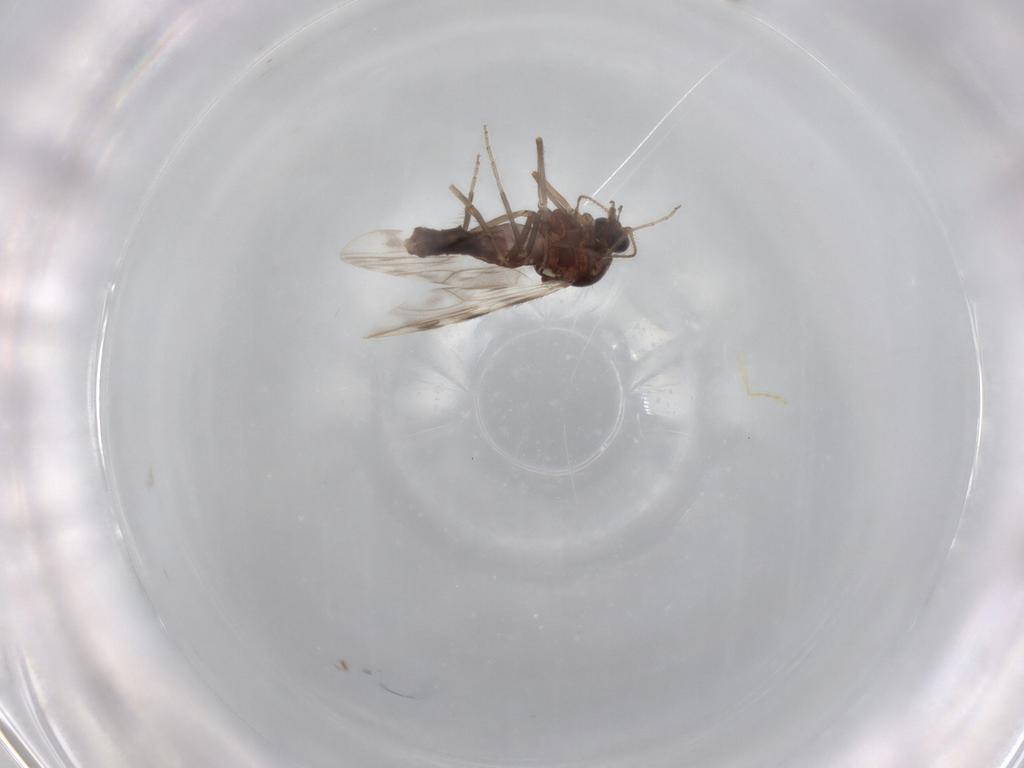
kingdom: Animalia
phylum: Arthropoda
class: Insecta
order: Diptera
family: Ceratopogonidae
